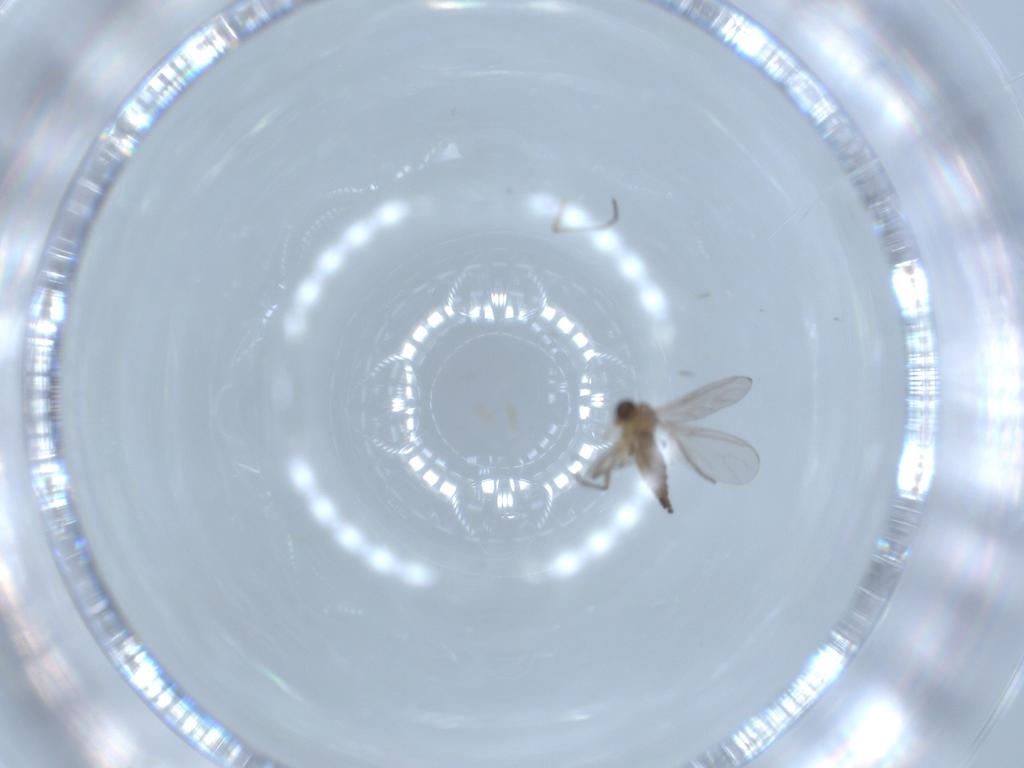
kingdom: Animalia
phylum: Arthropoda
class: Insecta
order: Diptera
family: Sciaridae
